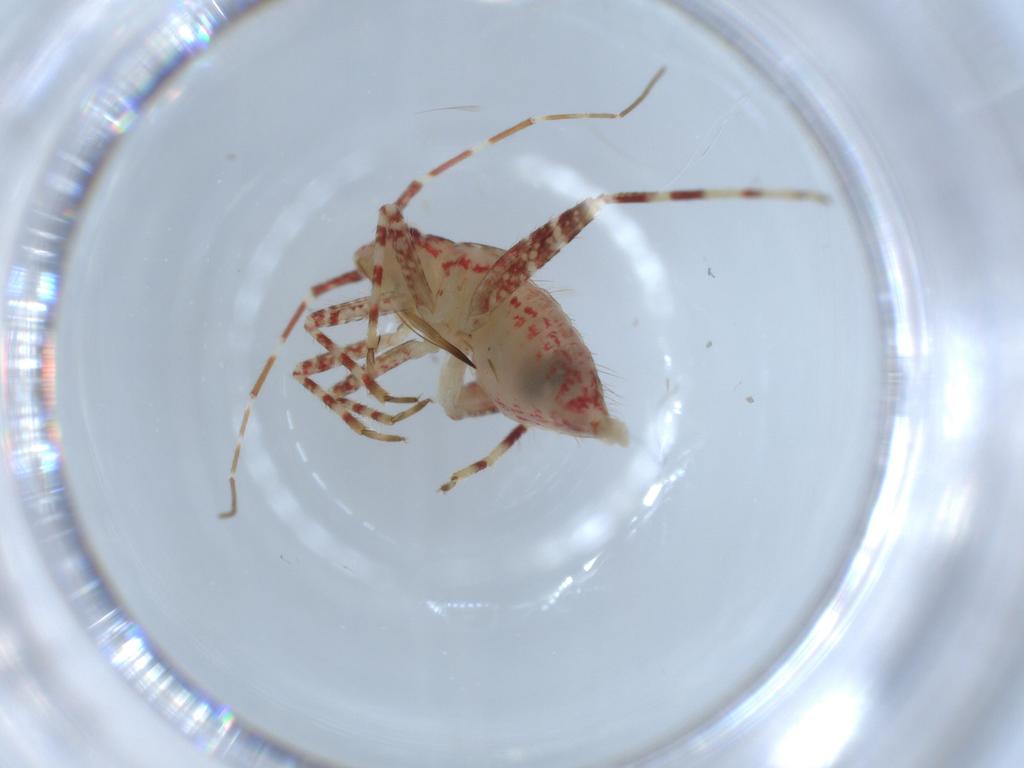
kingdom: Animalia
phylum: Arthropoda
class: Insecta
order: Hemiptera
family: Miridae
